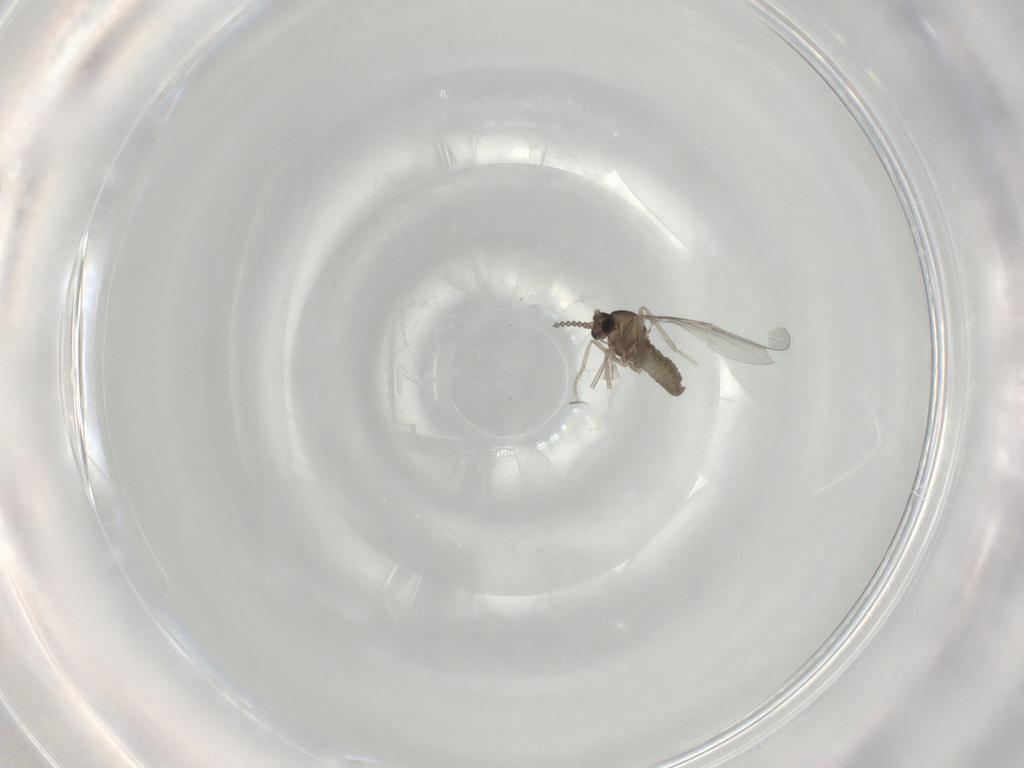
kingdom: Animalia
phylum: Arthropoda
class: Insecta
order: Diptera
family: Cecidomyiidae
